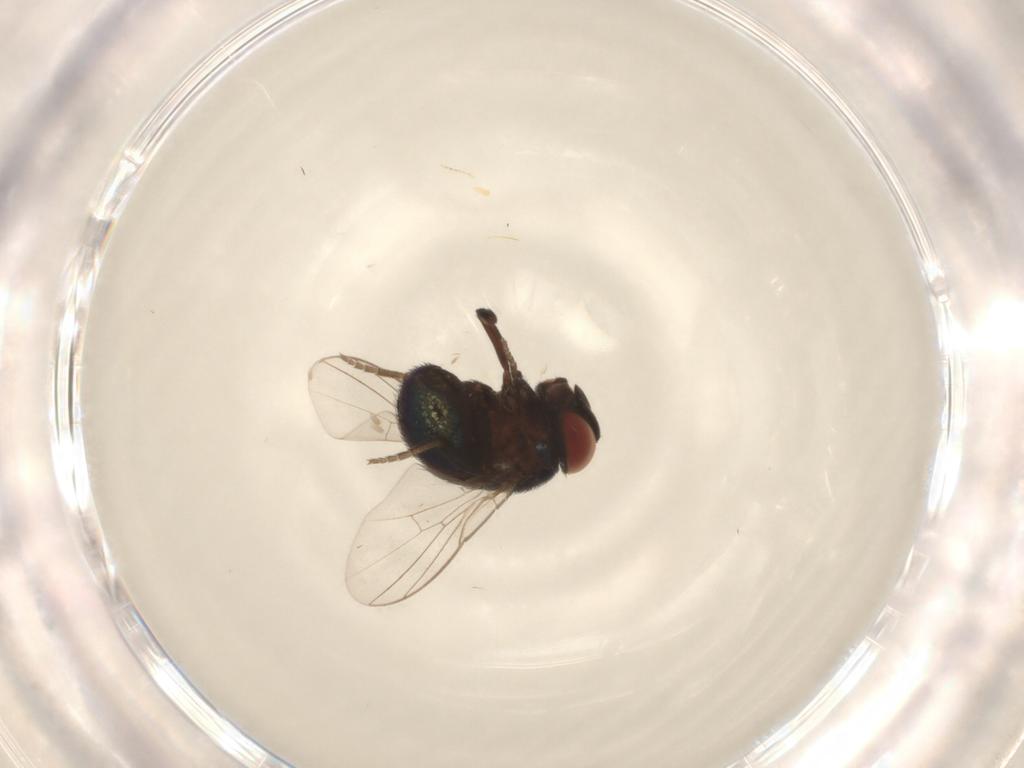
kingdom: Animalia
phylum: Arthropoda
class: Insecta
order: Diptera
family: Cryptochetidae
